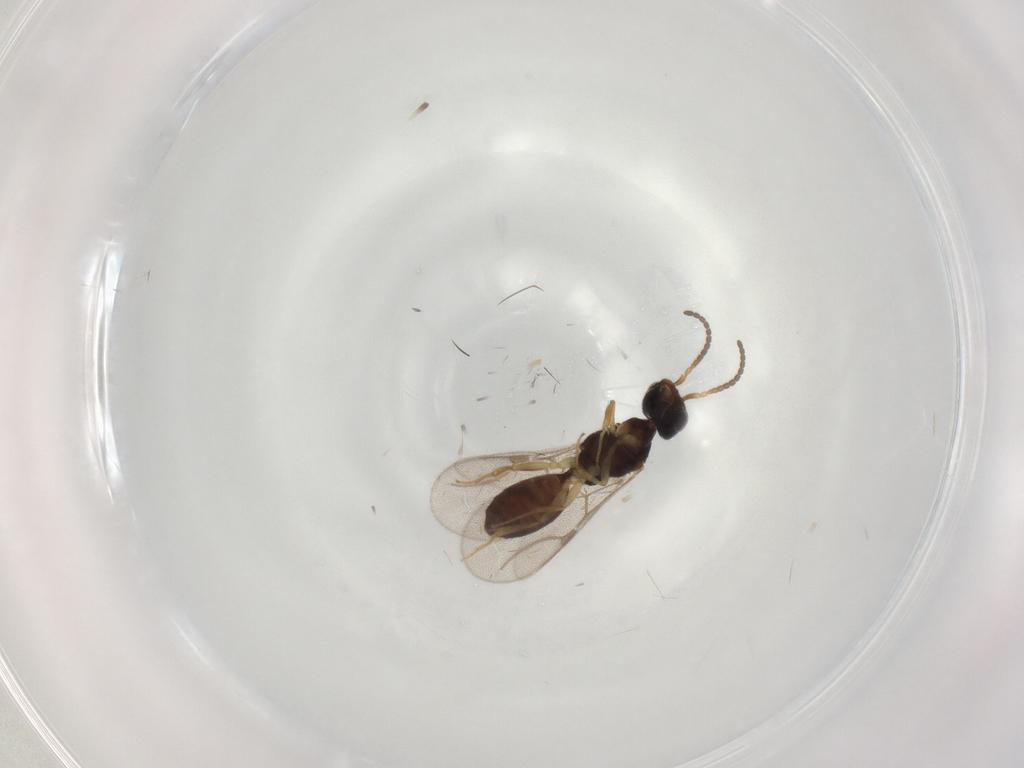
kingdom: Animalia
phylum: Arthropoda
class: Insecta
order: Hymenoptera
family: Bethylidae
